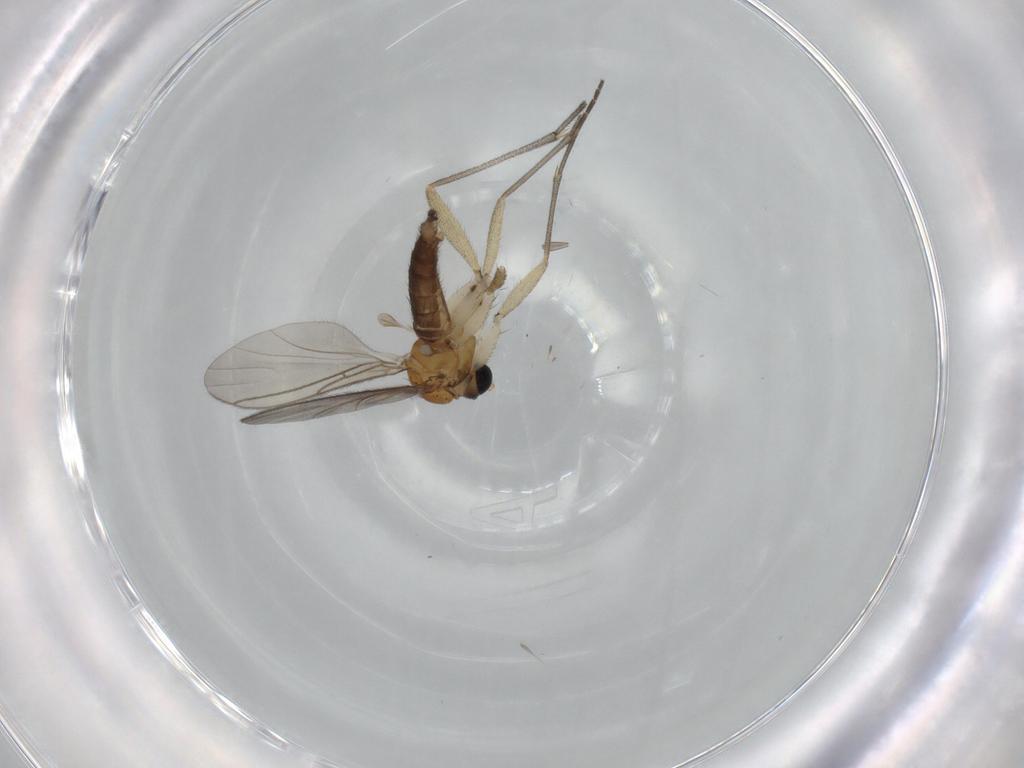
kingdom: Animalia
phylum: Arthropoda
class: Insecta
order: Diptera
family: Sciaridae
